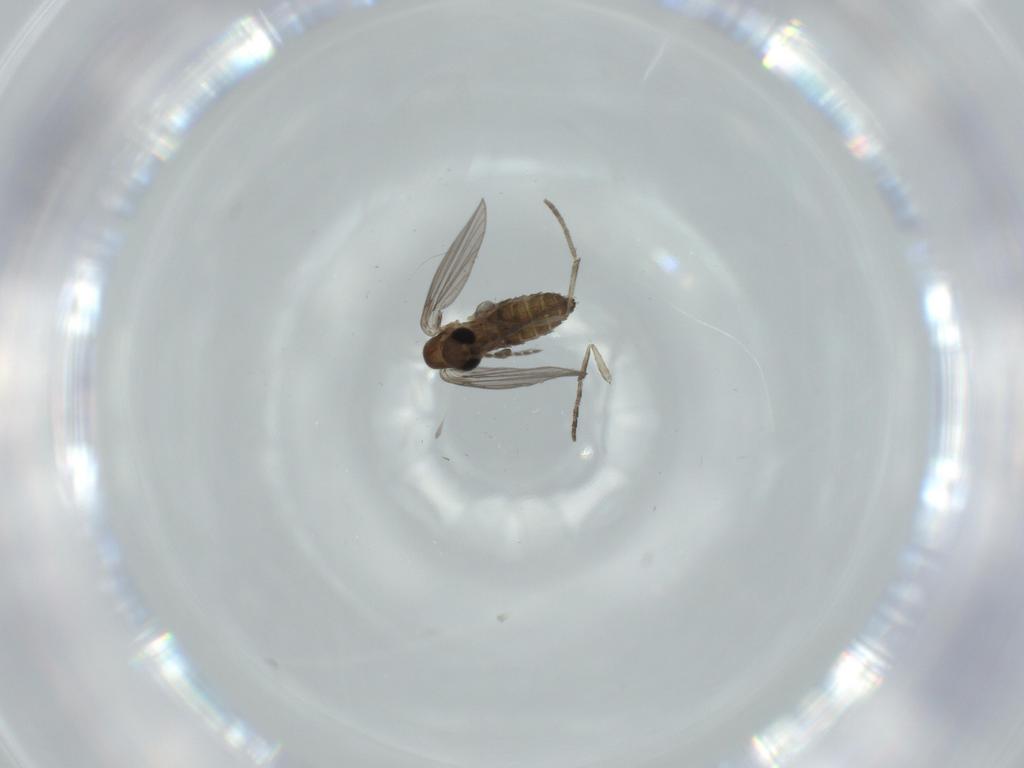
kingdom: Animalia
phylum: Arthropoda
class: Insecta
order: Diptera
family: Psychodidae
